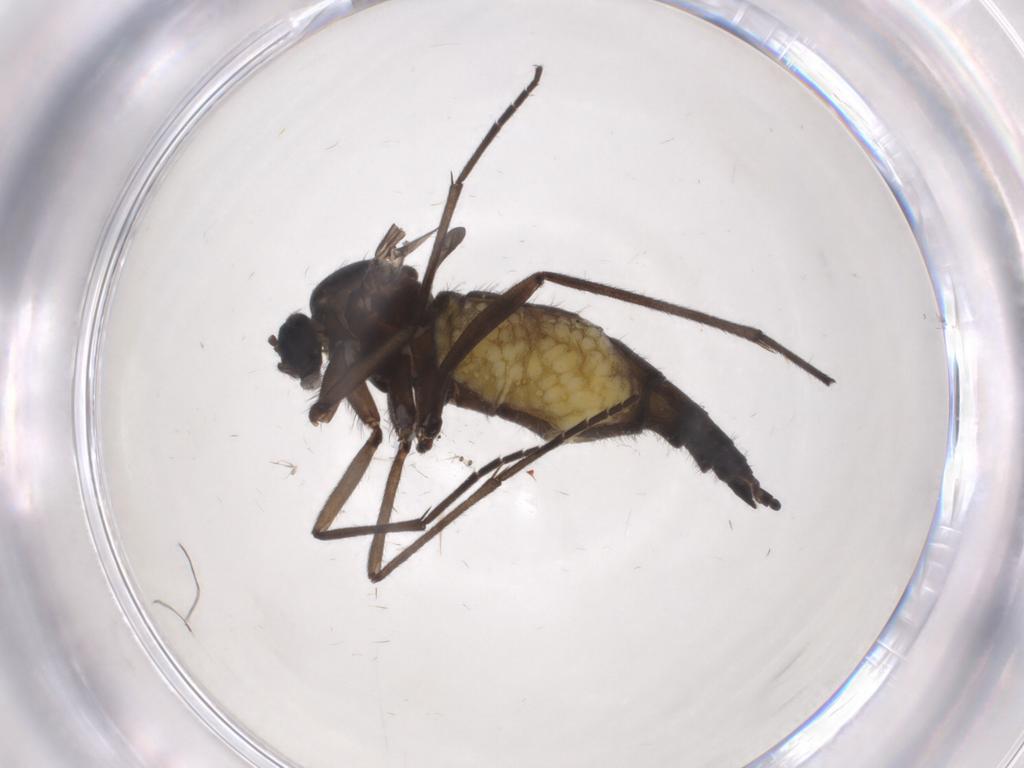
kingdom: Animalia
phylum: Arthropoda
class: Insecta
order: Diptera
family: Sciaridae
